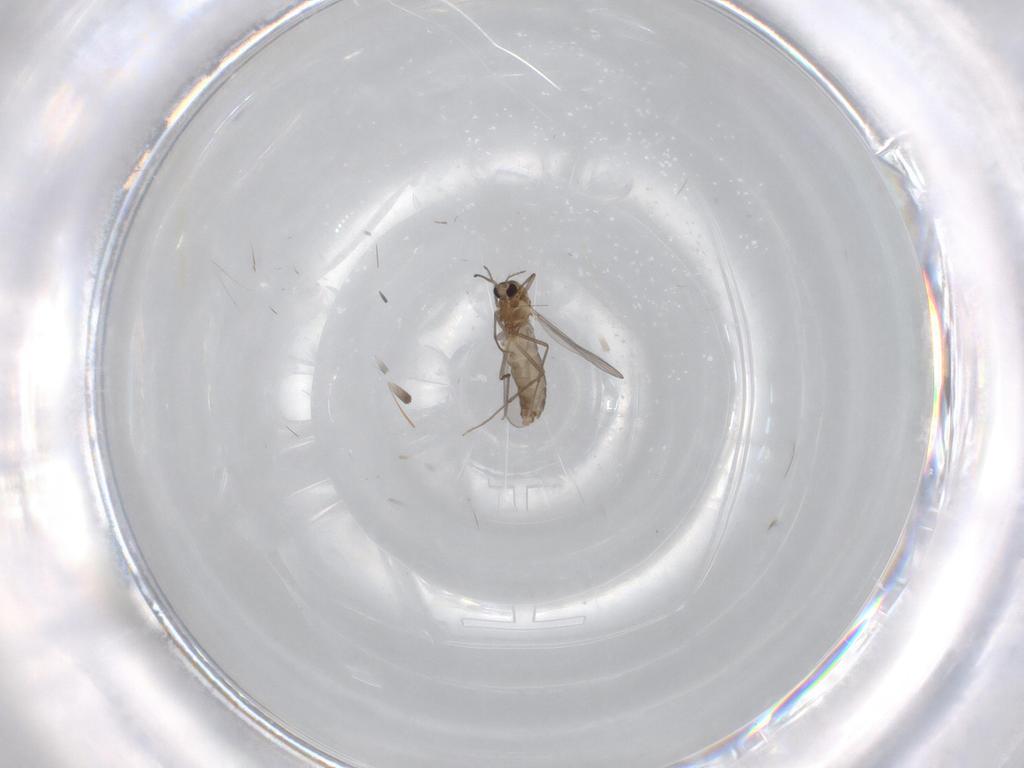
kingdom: Animalia
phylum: Arthropoda
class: Insecta
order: Diptera
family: Chironomidae
